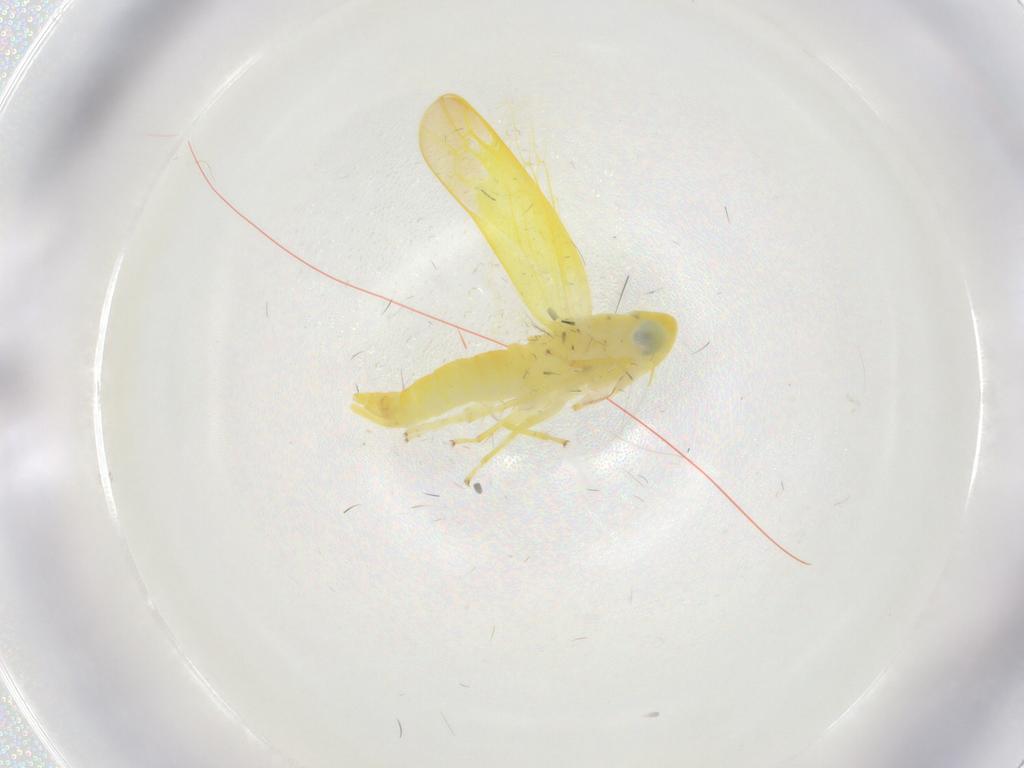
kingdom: Animalia
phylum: Arthropoda
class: Insecta
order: Hemiptera
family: Cicadellidae
